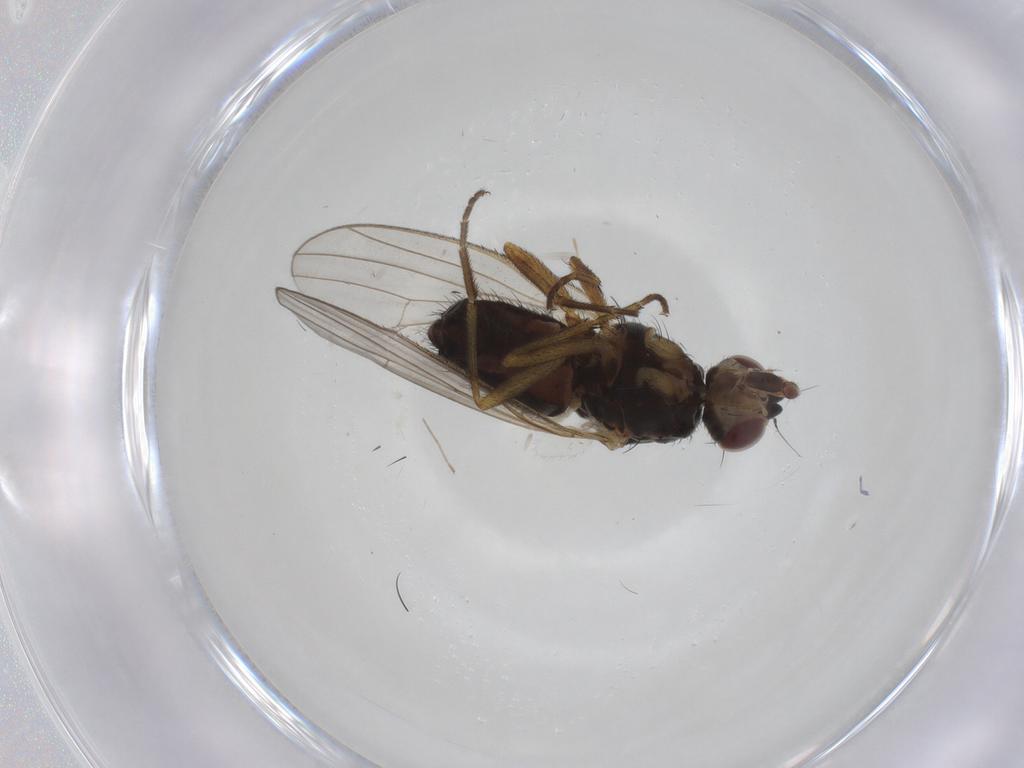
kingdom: Animalia
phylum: Arthropoda
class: Insecta
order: Diptera
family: Heleomyzidae
